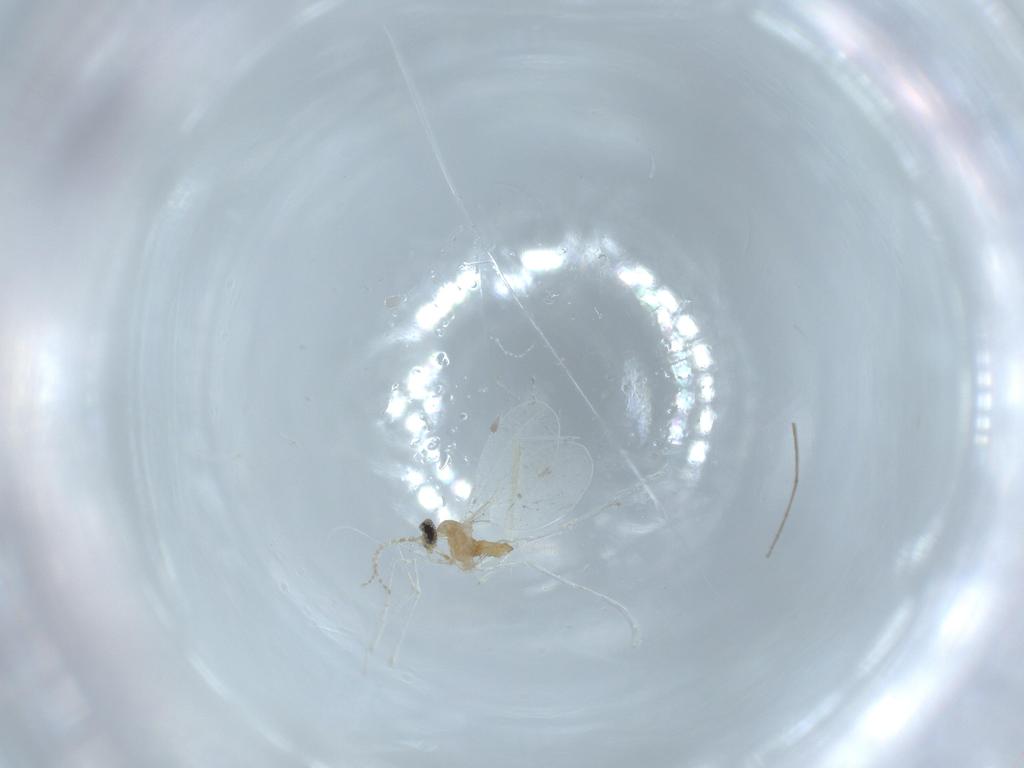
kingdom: Animalia
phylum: Arthropoda
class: Insecta
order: Diptera
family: Cecidomyiidae
